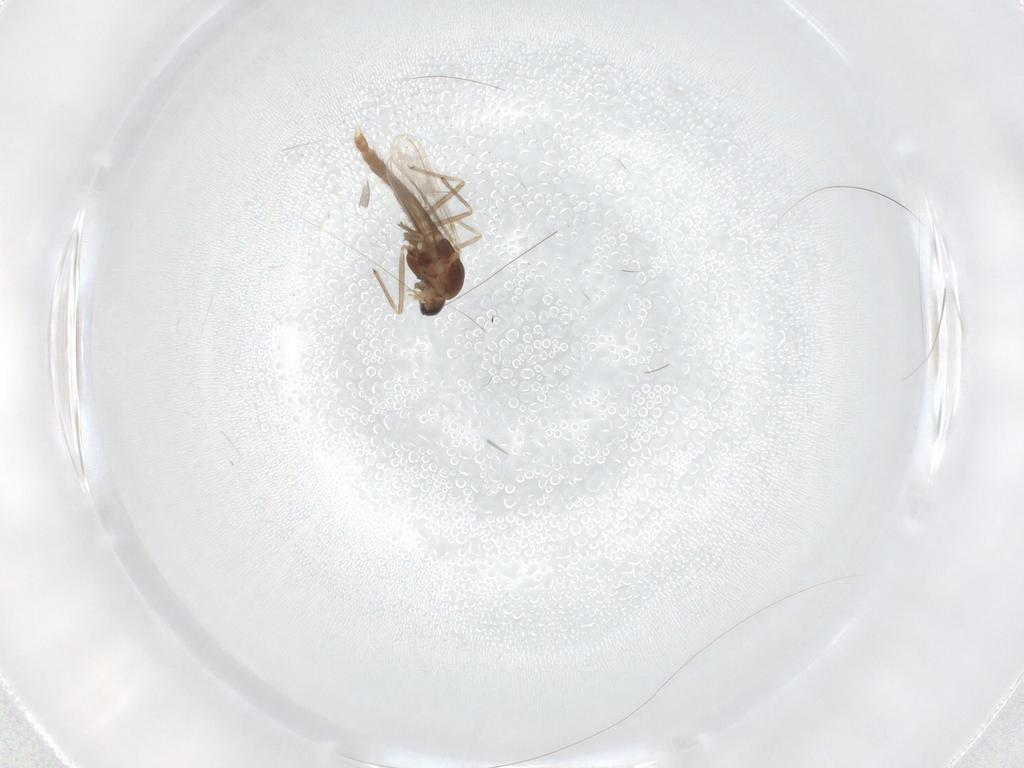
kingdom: Animalia
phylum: Arthropoda
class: Insecta
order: Diptera
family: Chironomidae
